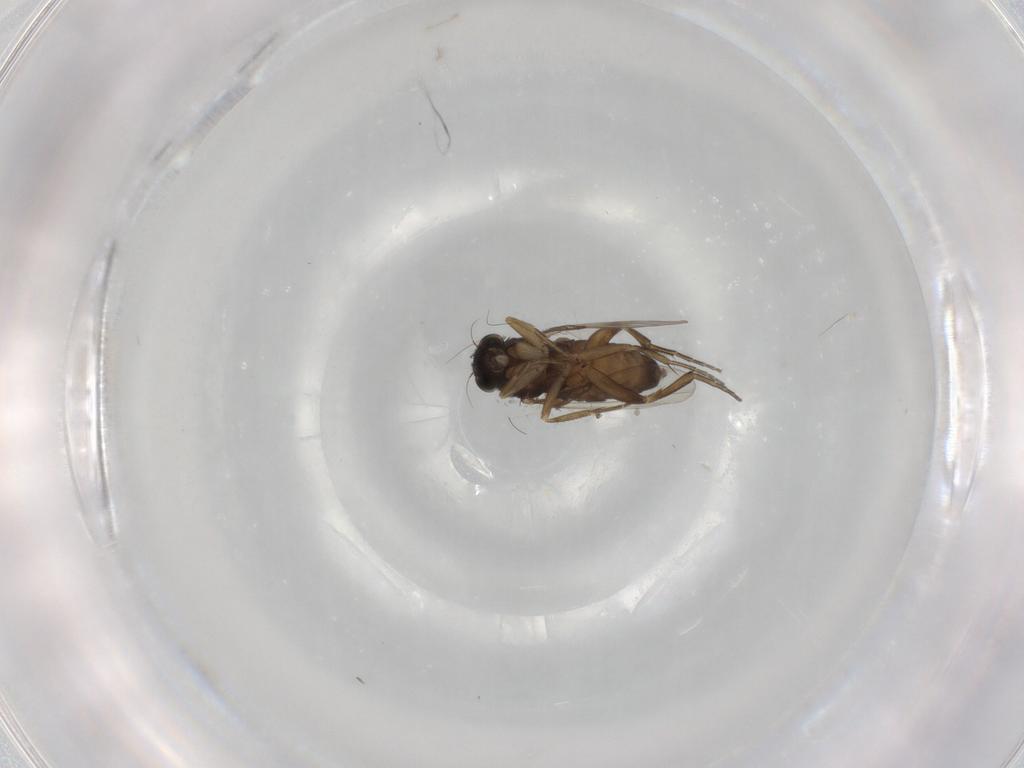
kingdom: Animalia
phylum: Arthropoda
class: Insecta
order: Diptera
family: Phoridae
